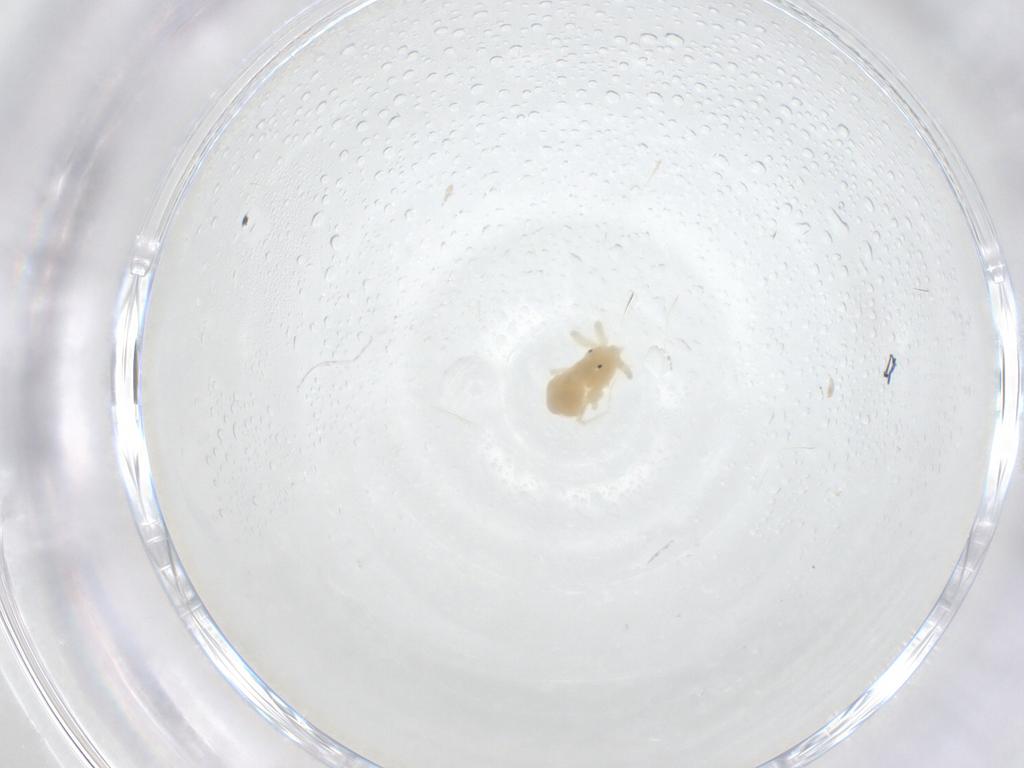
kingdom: Animalia
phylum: Arthropoda
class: Arachnida
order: Trombidiformes
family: Anystidae
